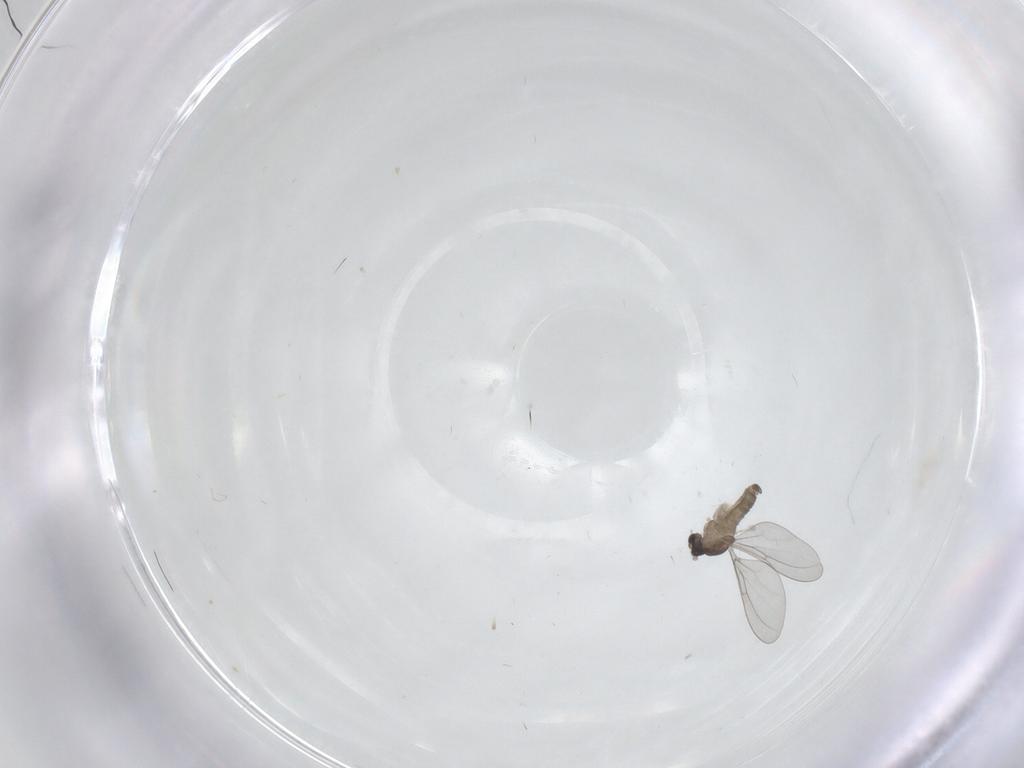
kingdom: Animalia
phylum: Arthropoda
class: Insecta
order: Diptera
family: Cecidomyiidae
